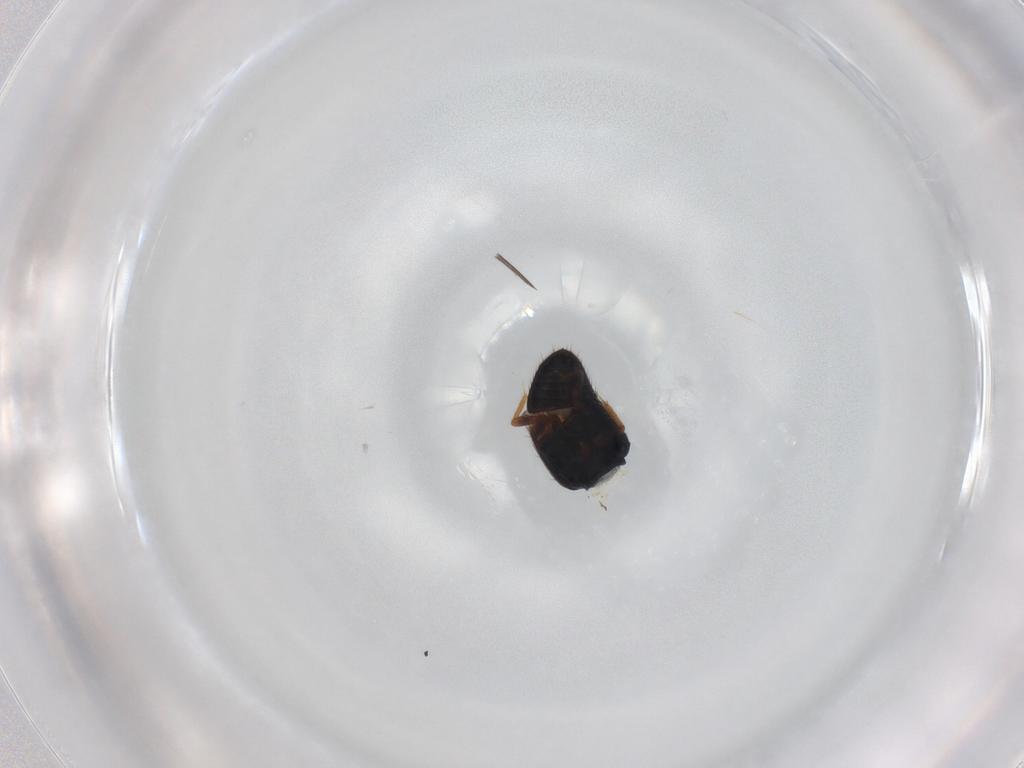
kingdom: Animalia
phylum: Arthropoda
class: Insecta
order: Coleoptera
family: Ptiliidae
